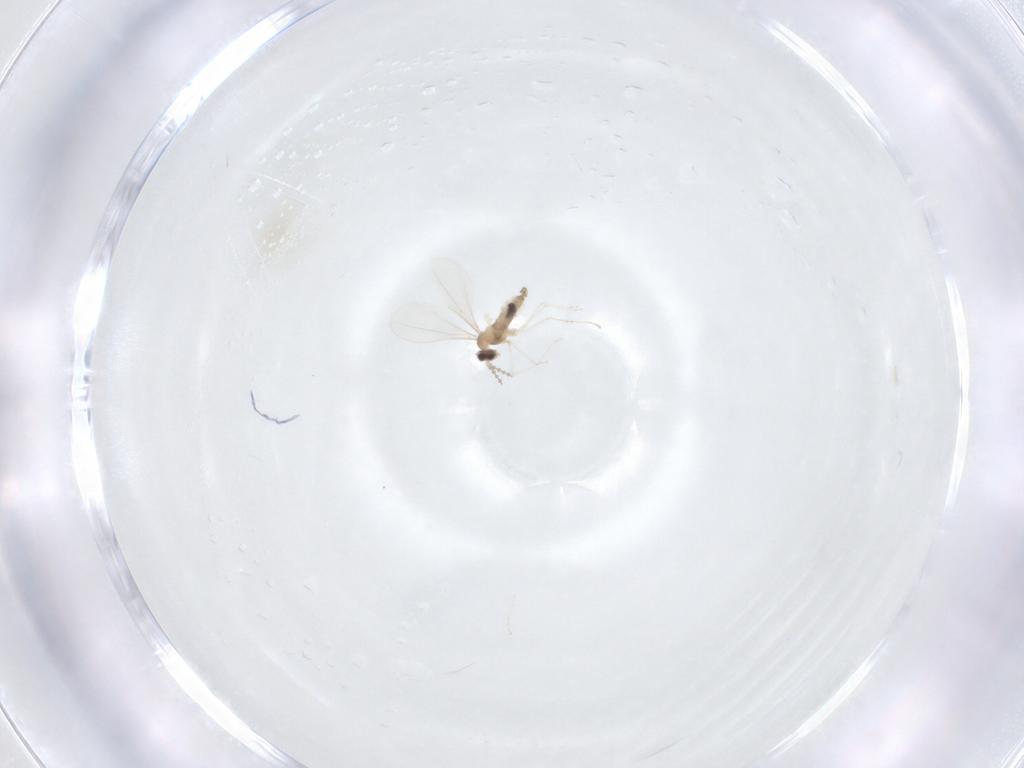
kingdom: Animalia
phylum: Arthropoda
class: Insecta
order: Diptera
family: Cecidomyiidae
